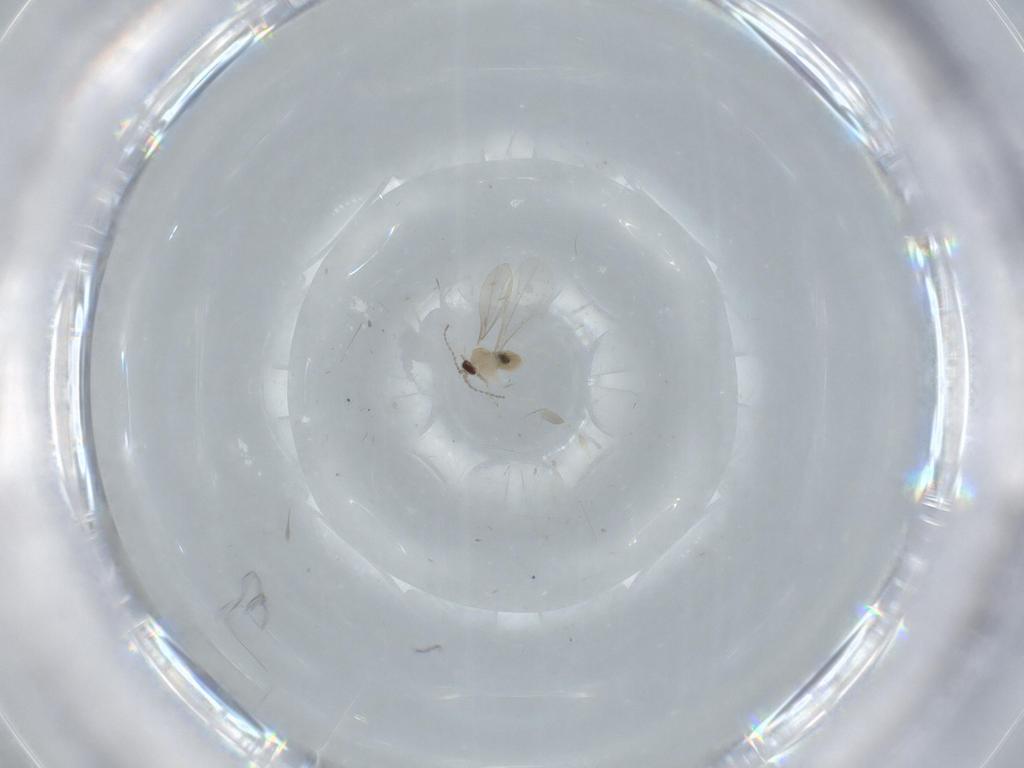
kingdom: Animalia
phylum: Arthropoda
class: Insecta
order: Diptera
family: Cecidomyiidae
